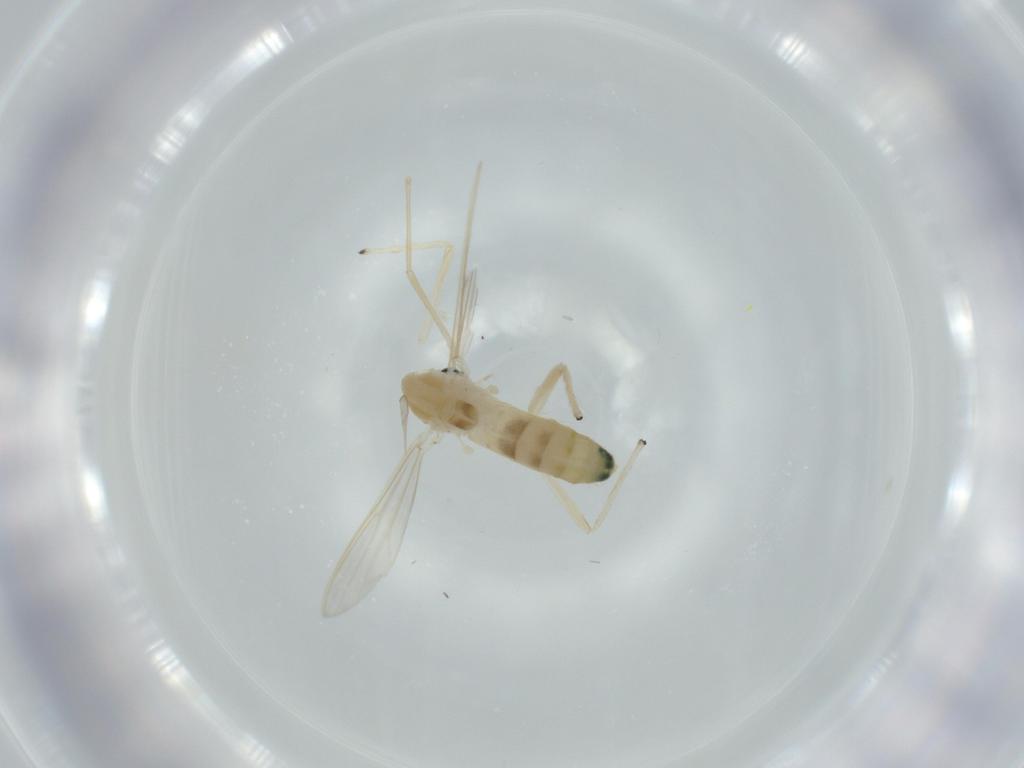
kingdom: Animalia
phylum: Arthropoda
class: Insecta
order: Diptera
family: Chironomidae
